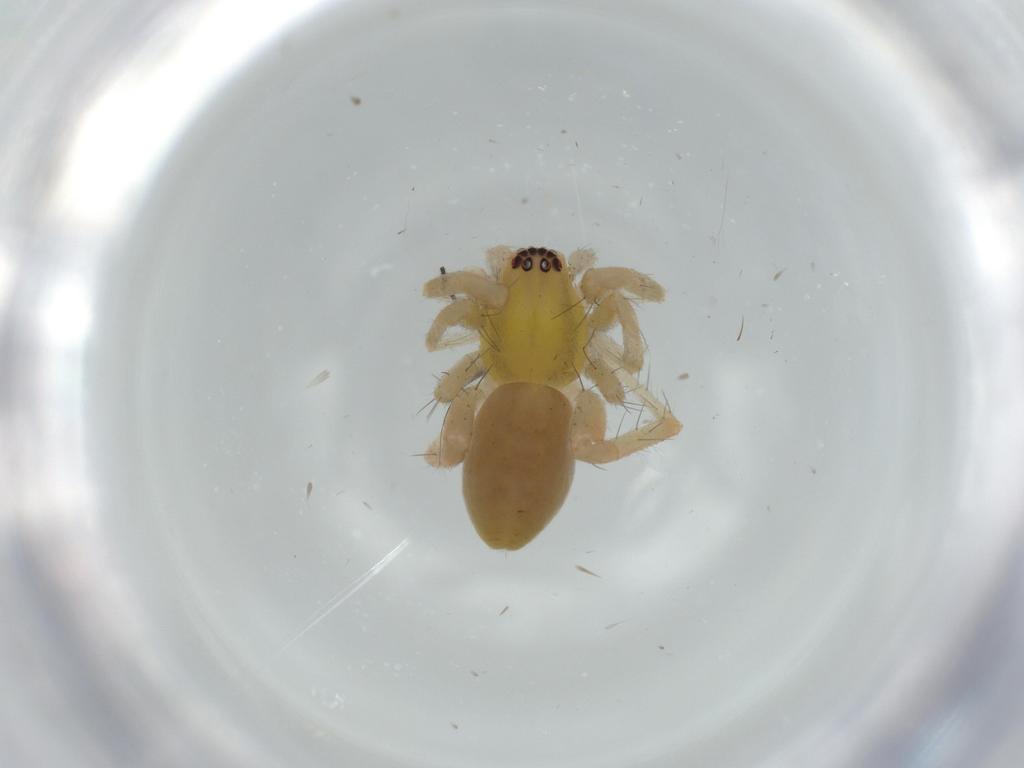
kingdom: Animalia
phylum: Arthropoda
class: Arachnida
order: Araneae
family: Anyphaenidae
